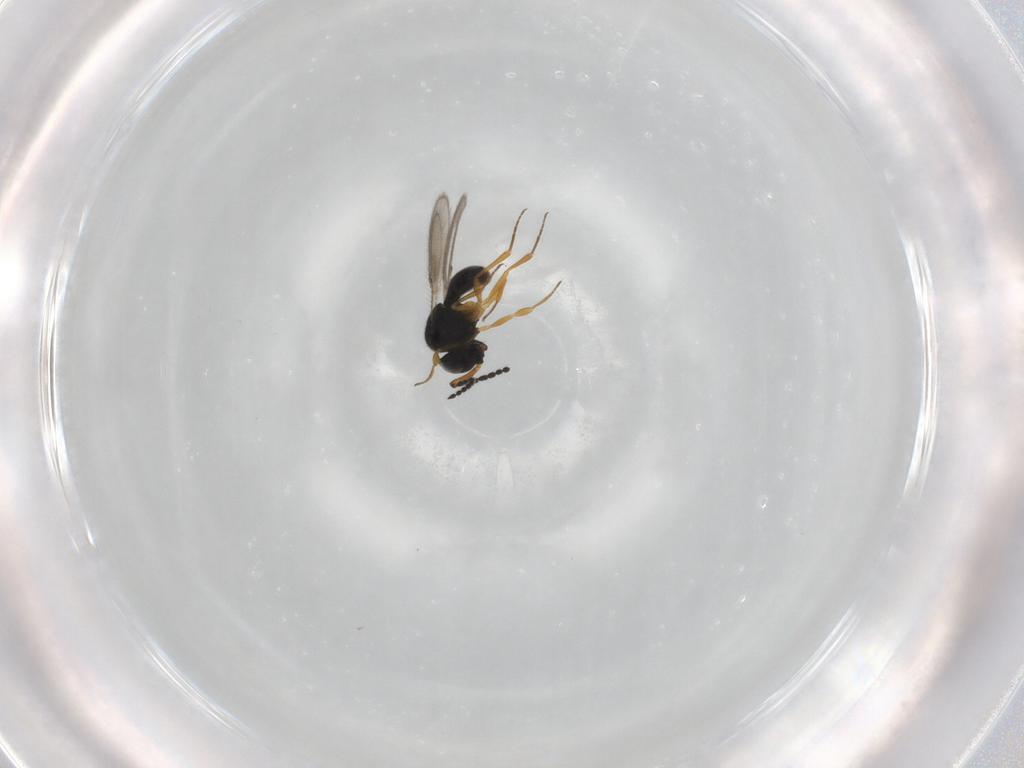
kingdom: Animalia
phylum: Arthropoda
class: Insecta
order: Hymenoptera
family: Scelionidae
